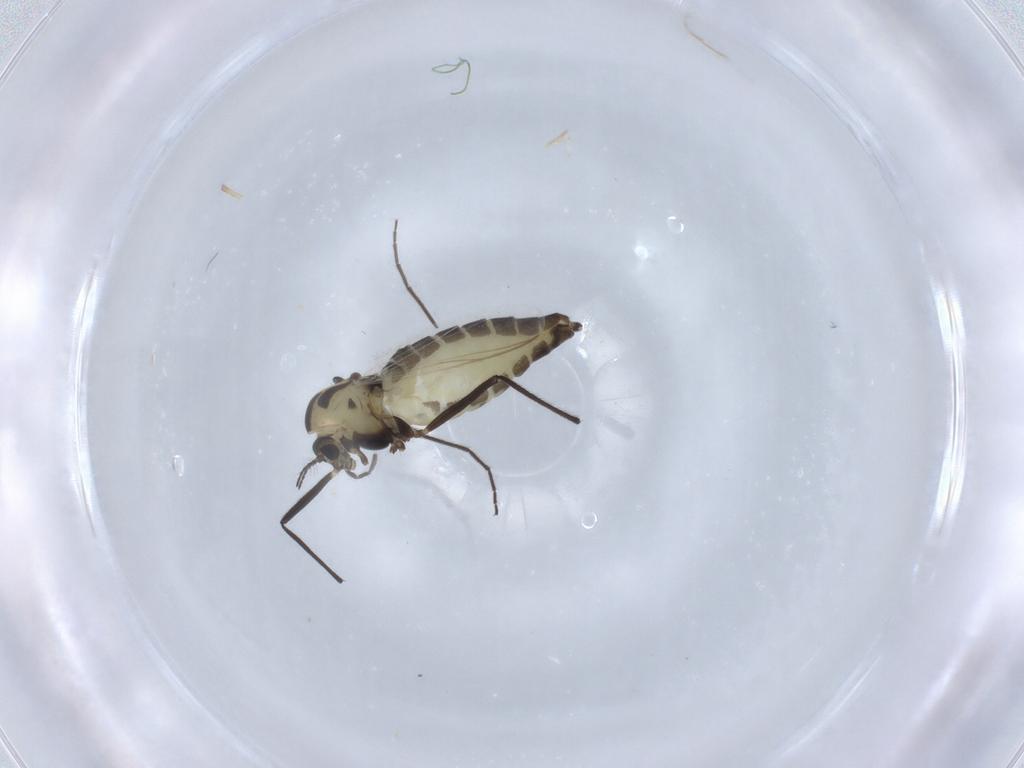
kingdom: Animalia
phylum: Arthropoda
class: Insecta
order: Diptera
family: Chironomidae
